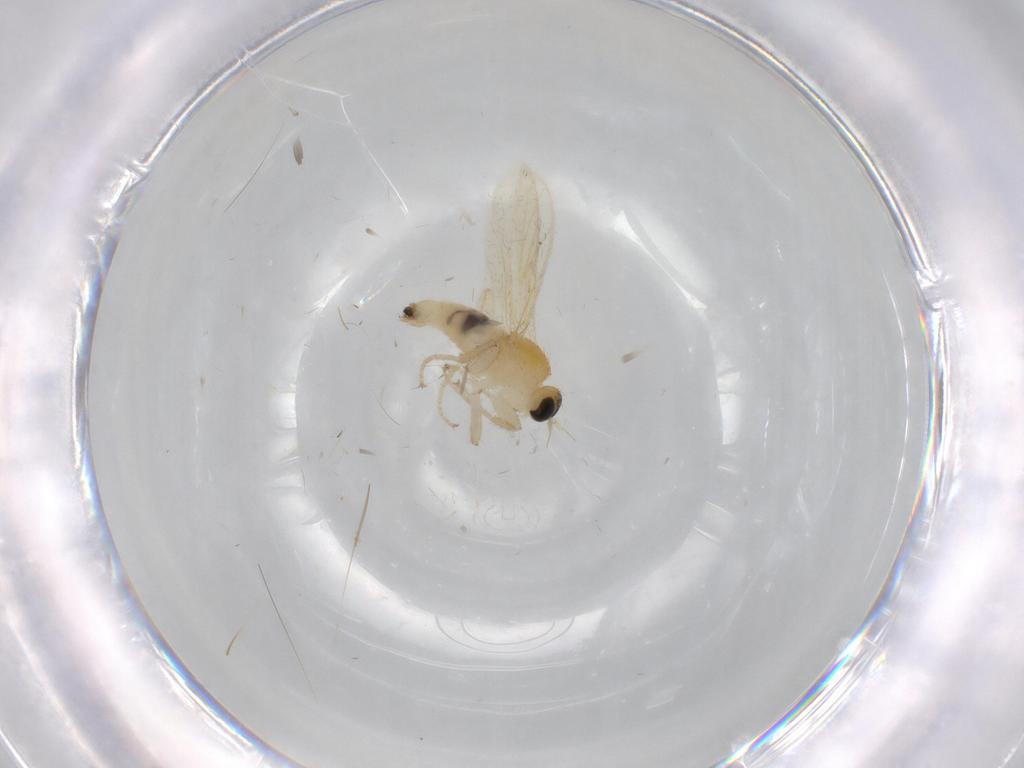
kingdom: Animalia
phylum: Arthropoda
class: Insecta
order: Diptera
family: Hybotidae
